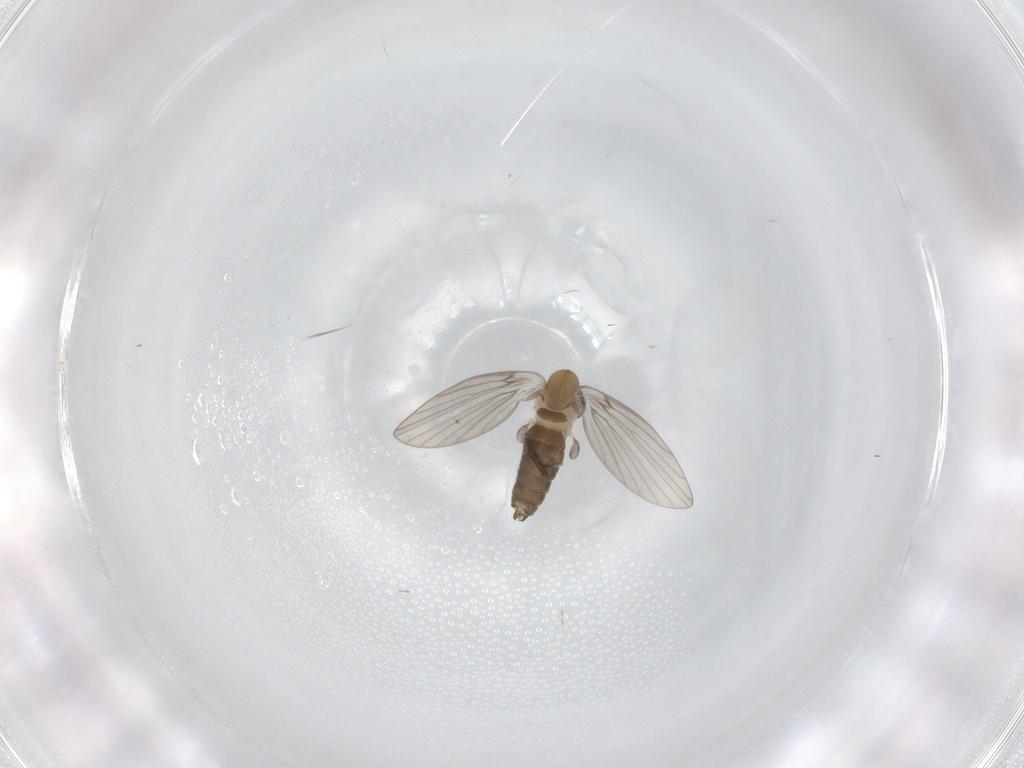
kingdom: Animalia
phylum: Arthropoda
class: Insecta
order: Diptera
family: Psychodidae
